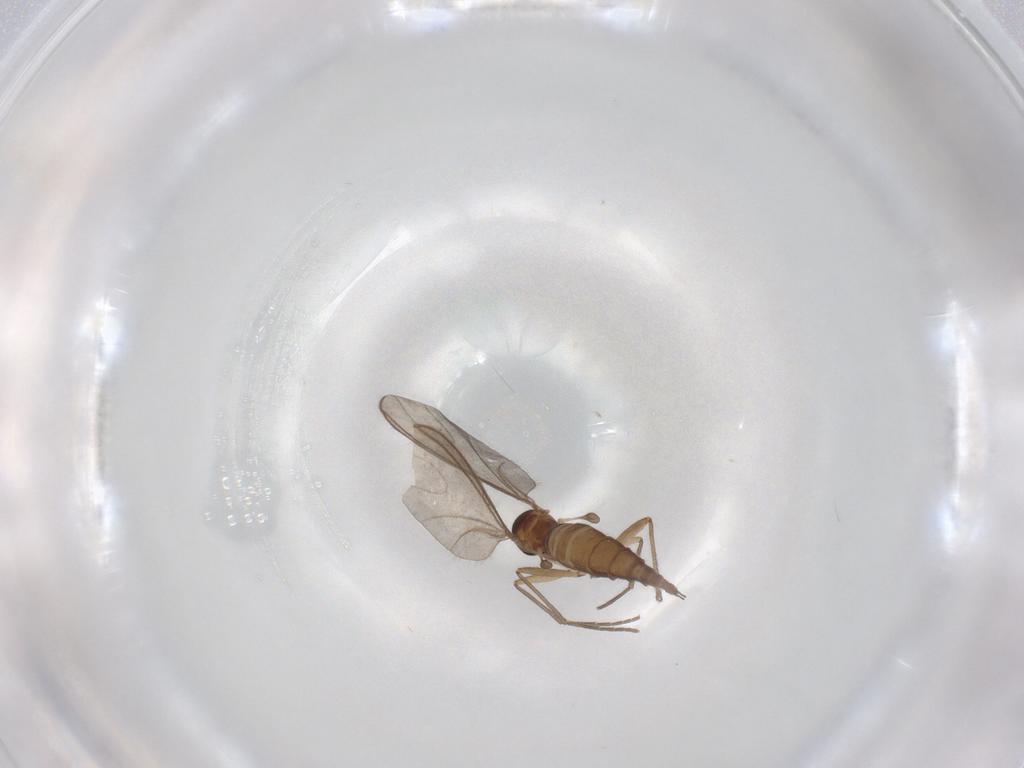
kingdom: Animalia
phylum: Arthropoda
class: Insecta
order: Diptera
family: Sciaridae
